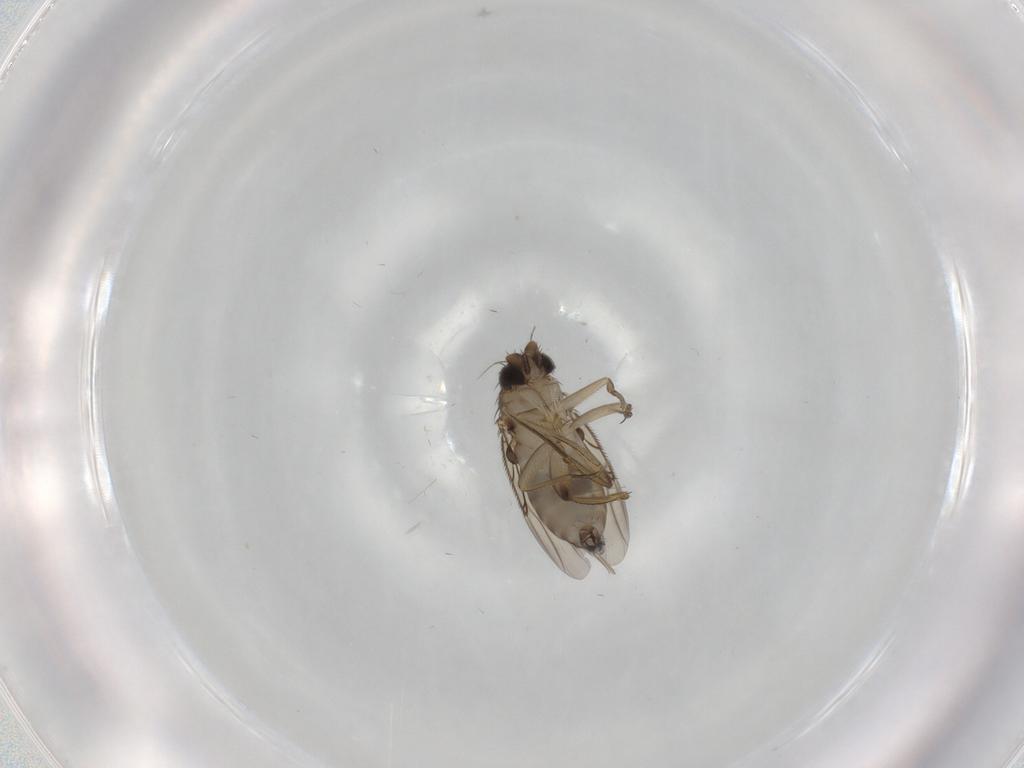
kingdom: Animalia
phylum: Arthropoda
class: Insecta
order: Diptera
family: Phoridae
